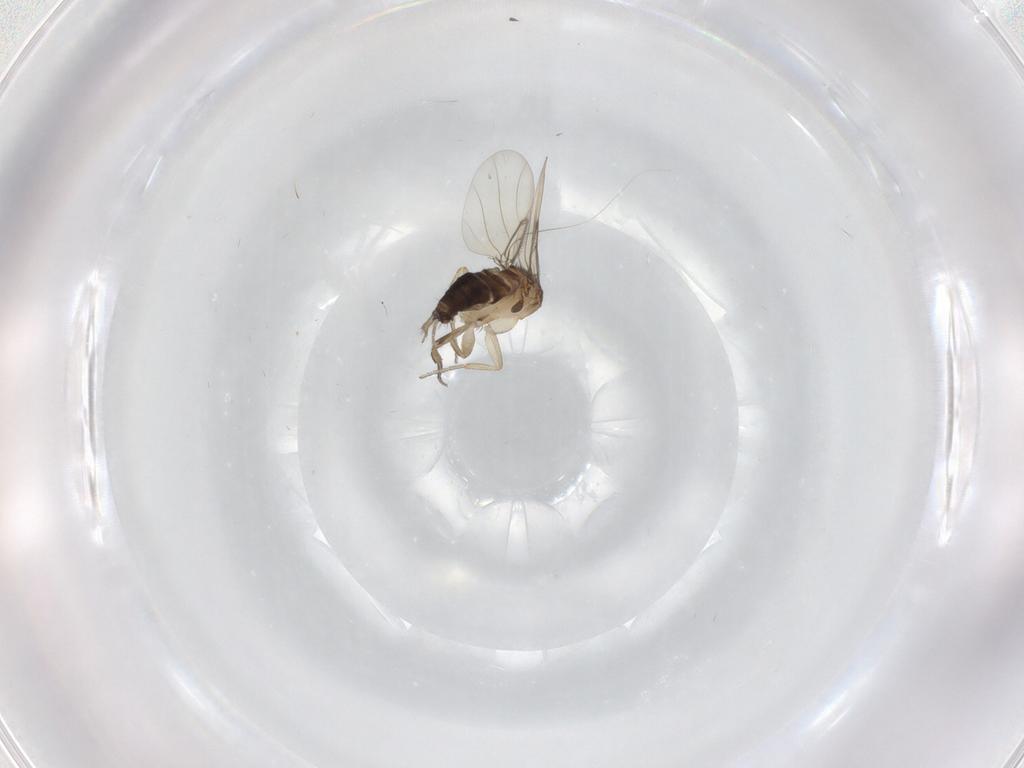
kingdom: Animalia
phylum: Arthropoda
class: Insecta
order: Diptera
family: Phoridae
